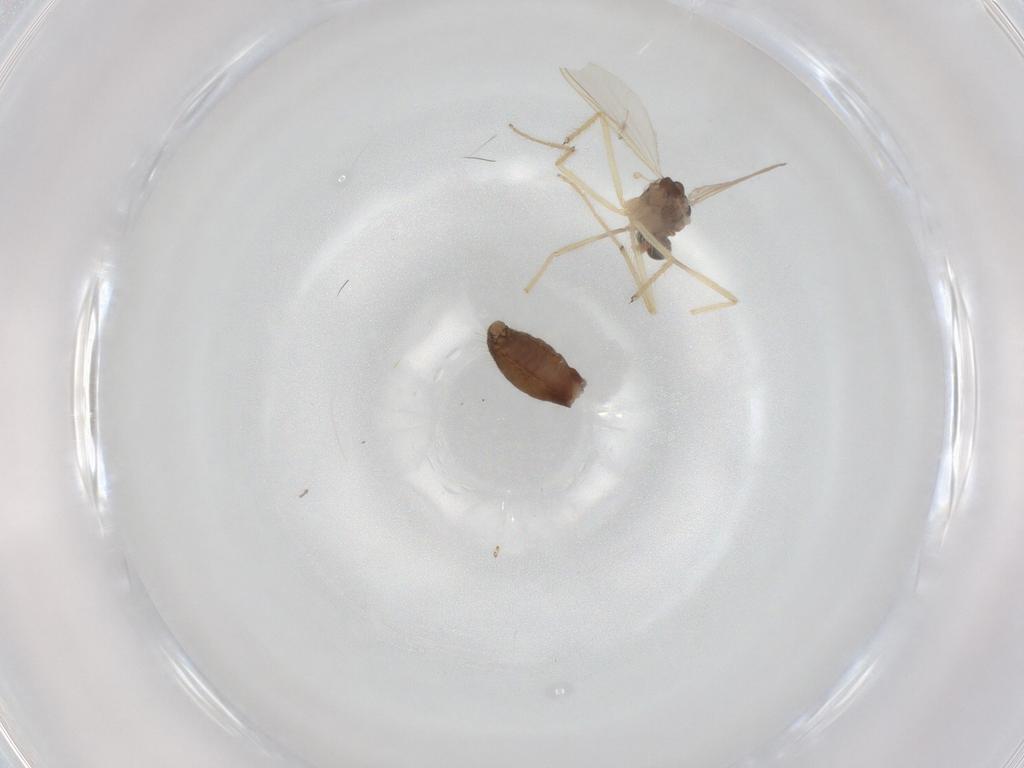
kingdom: Animalia
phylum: Arthropoda
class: Insecta
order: Diptera
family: Chironomidae
